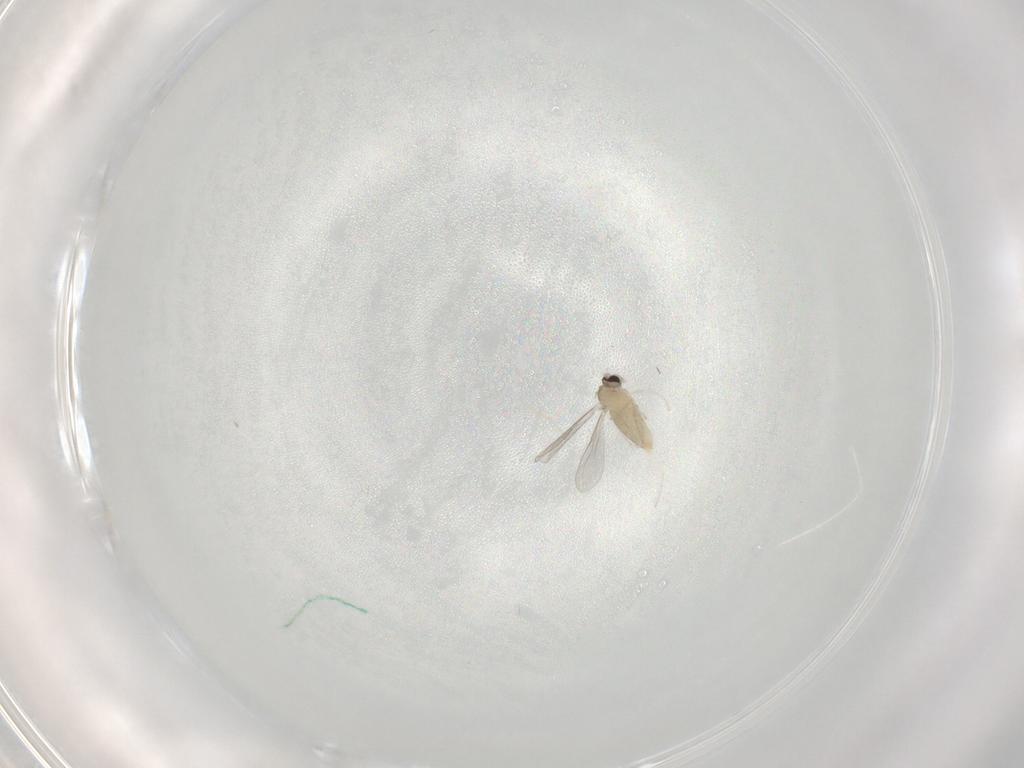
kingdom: Animalia
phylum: Arthropoda
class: Insecta
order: Diptera
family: Cecidomyiidae
